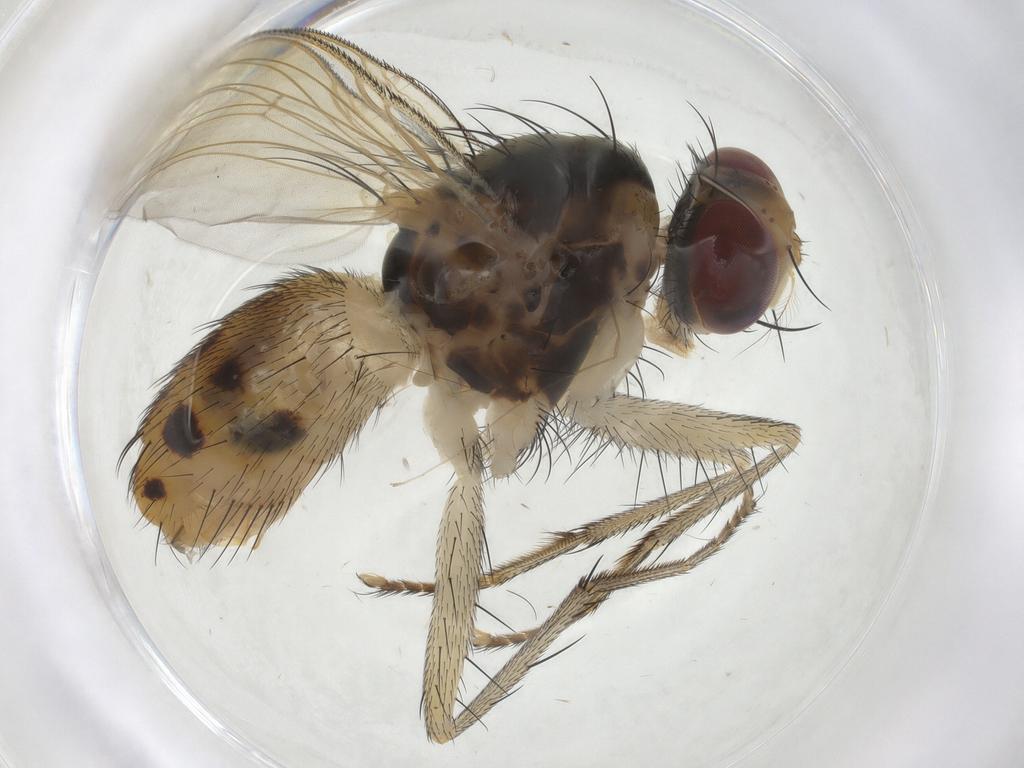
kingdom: Animalia
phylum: Arthropoda
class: Insecta
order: Diptera
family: Muscidae
